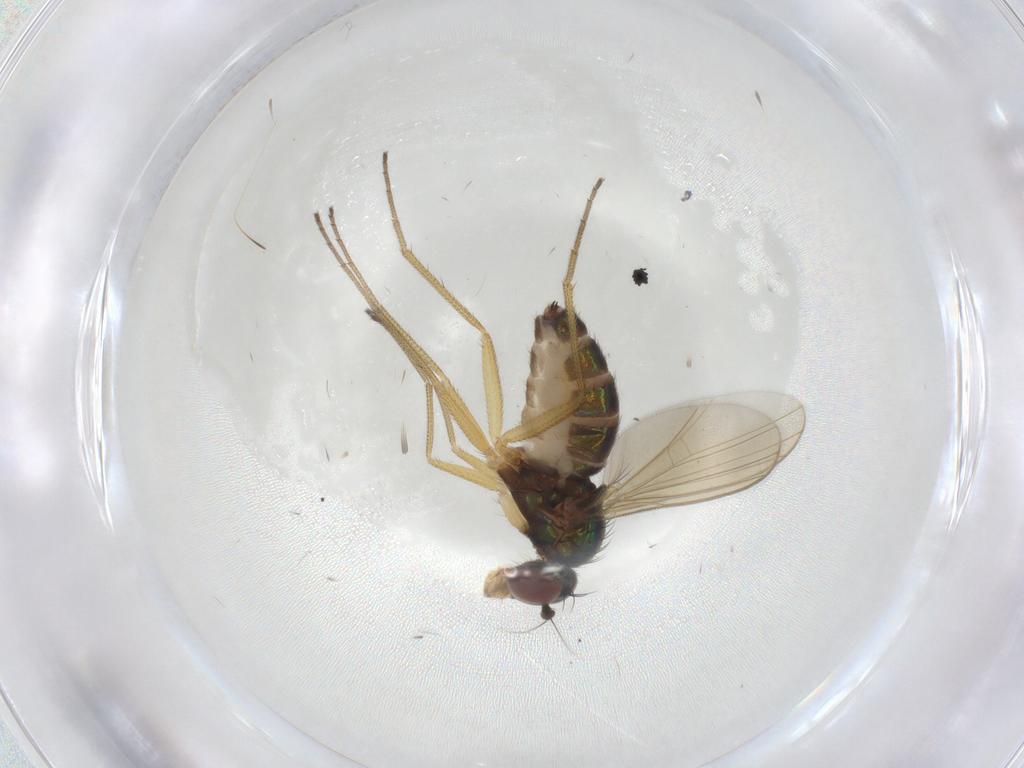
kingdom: Animalia
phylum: Arthropoda
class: Insecta
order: Diptera
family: Dolichopodidae
